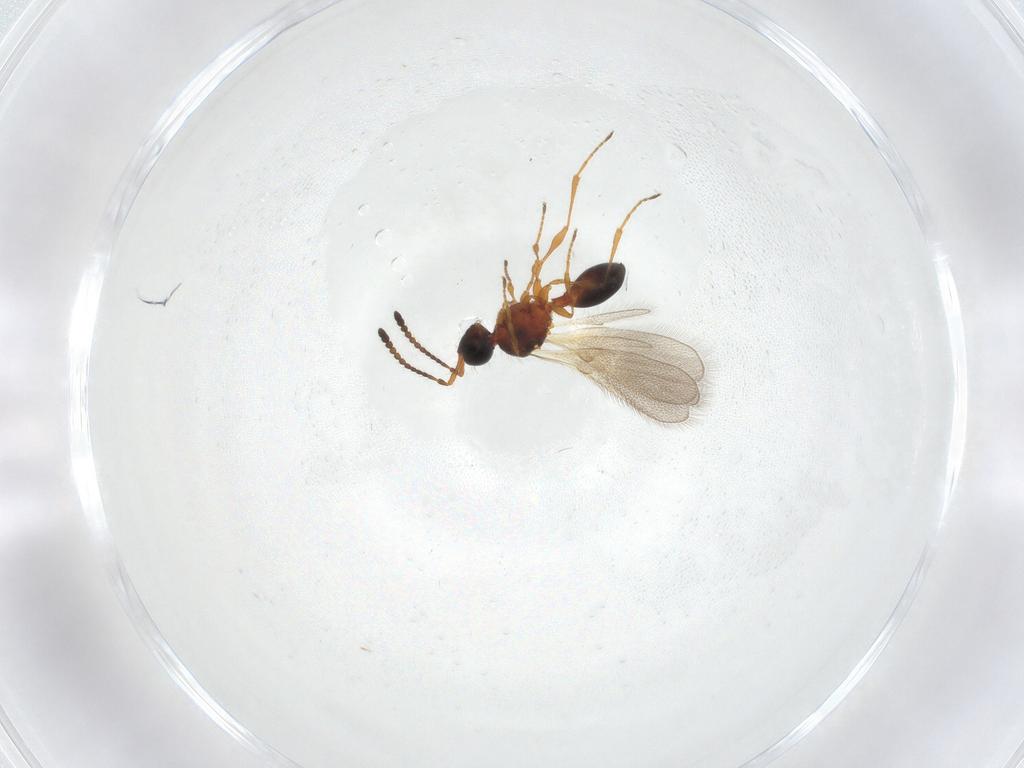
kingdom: Animalia
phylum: Arthropoda
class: Insecta
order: Hymenoptera
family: Diapriidae
